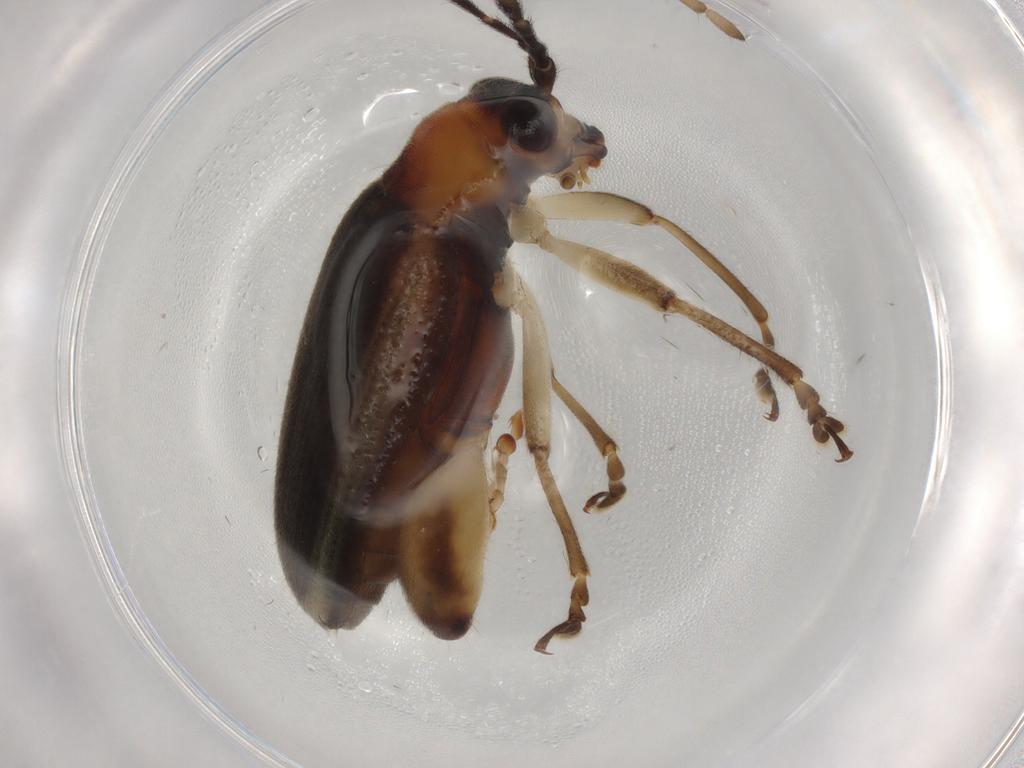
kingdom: Animalia
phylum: Arthropoda
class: Insecta
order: Coleoptera
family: Chrysomelidae
